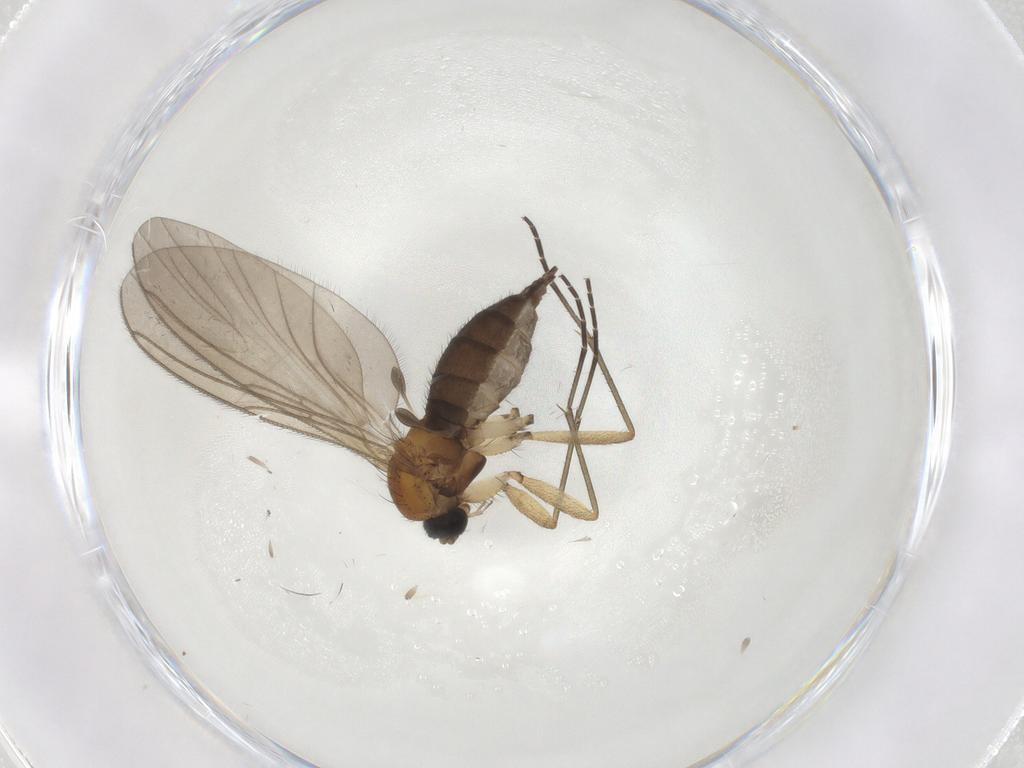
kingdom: Animalia
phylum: Arthropoda
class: Insecta
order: Diptera
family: Sciaridae
